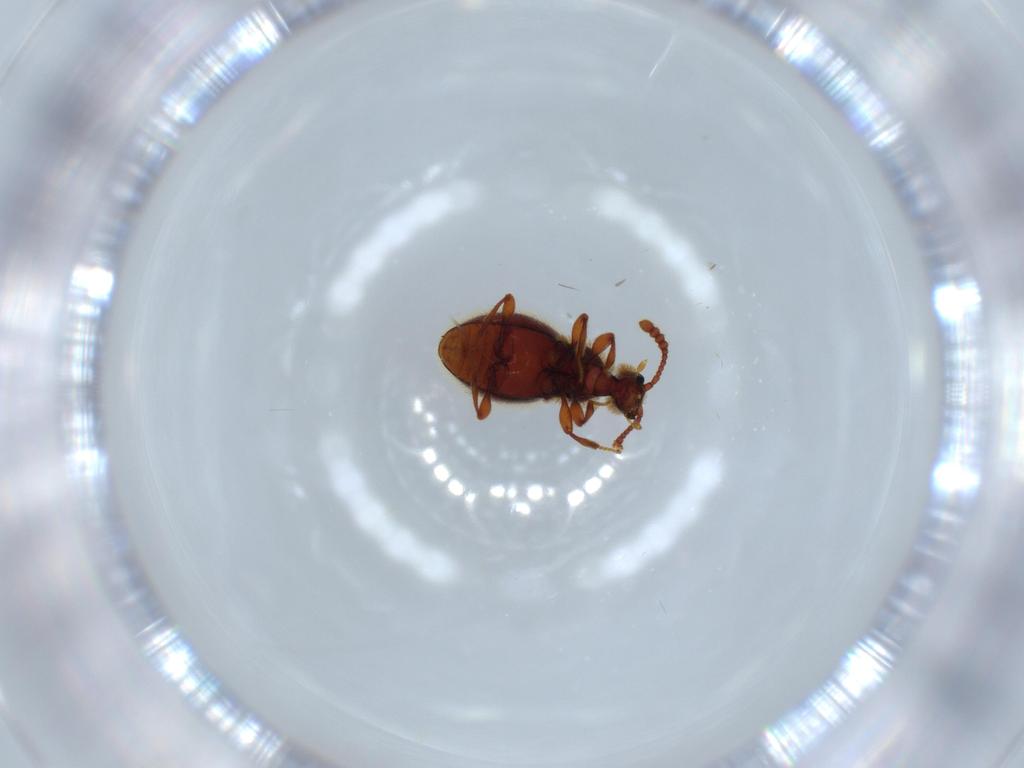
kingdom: Animalia
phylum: Arthropoda
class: Insecta
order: Coleoptera
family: Staphylinidae
